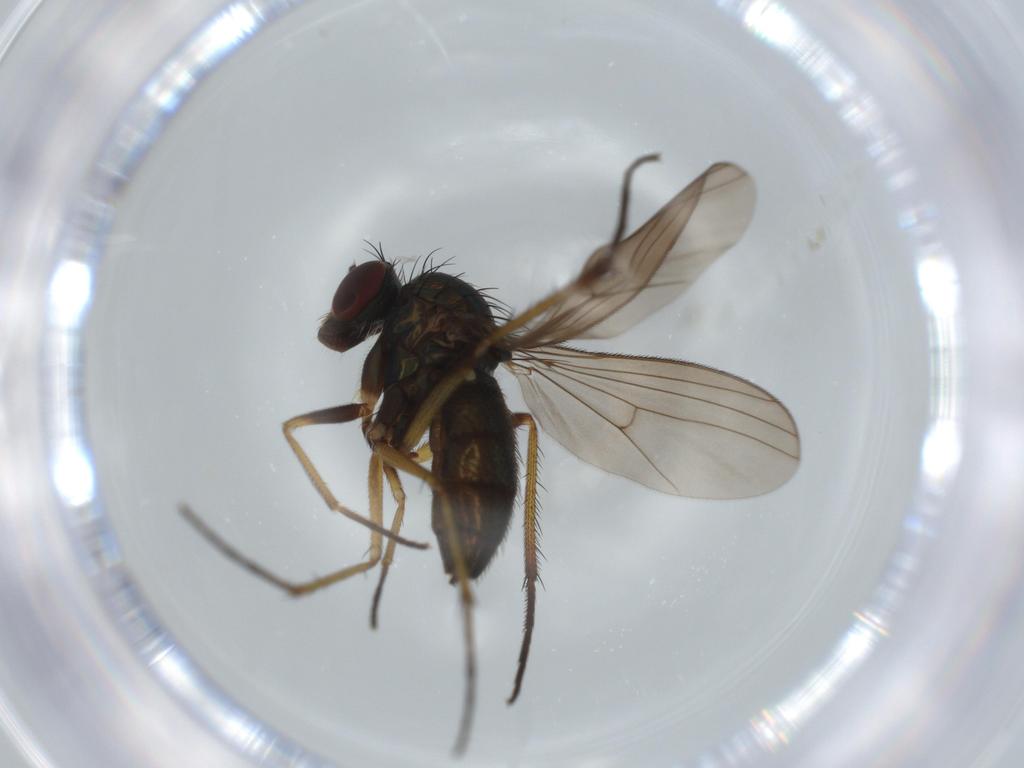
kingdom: Animalia
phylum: Arthropoda
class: Insecta
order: Diptera
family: Dolichopodidae
